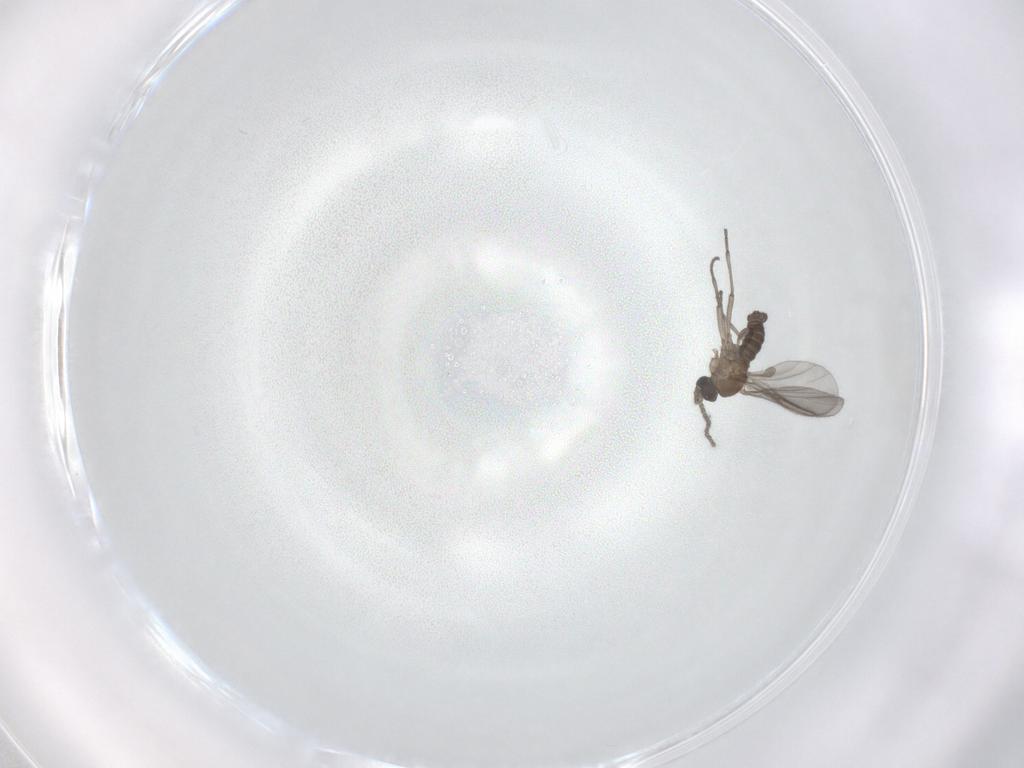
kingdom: Animalia
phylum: Arthropoda
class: Insecta
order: Diptera
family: Sciaridae
